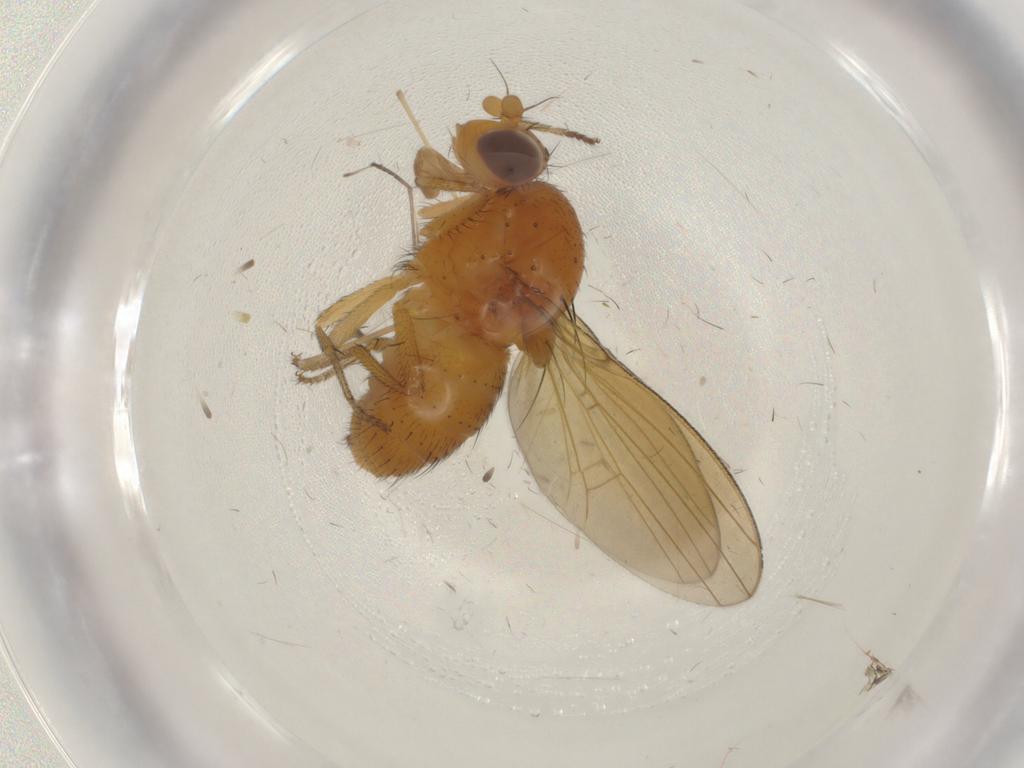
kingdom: Animalia
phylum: Arthropoda
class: Insecta
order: Diptera
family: Limoniidae
